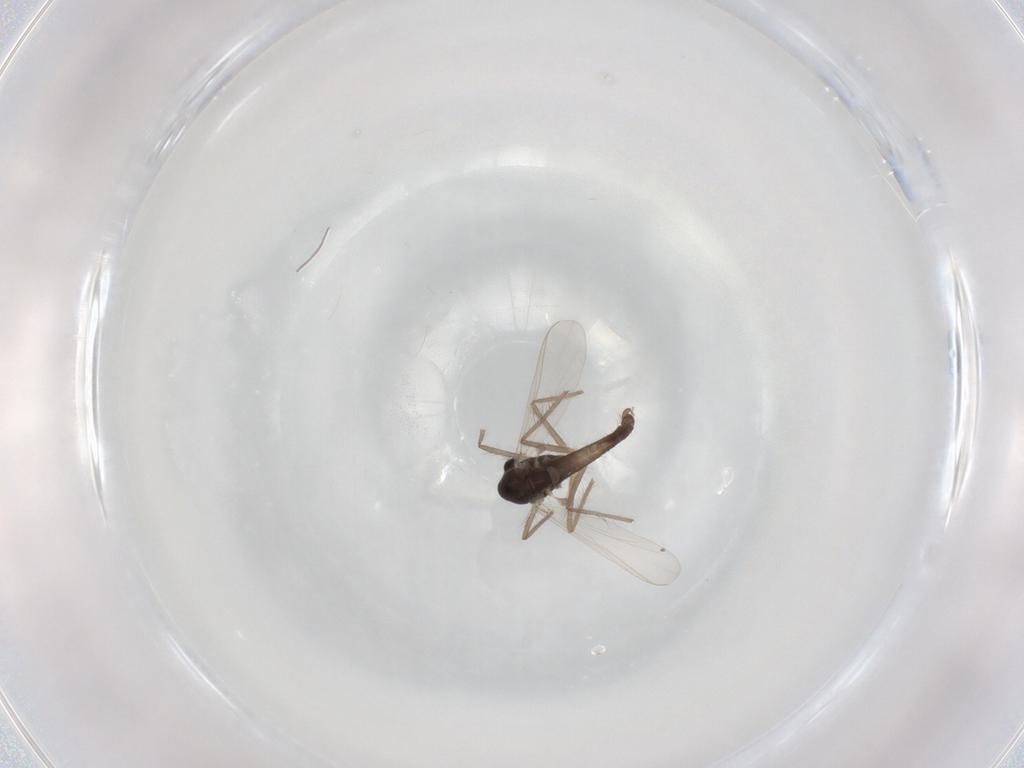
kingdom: Animalia
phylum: Arthropoda
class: Insecta
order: Diptera
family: Chironomidae
